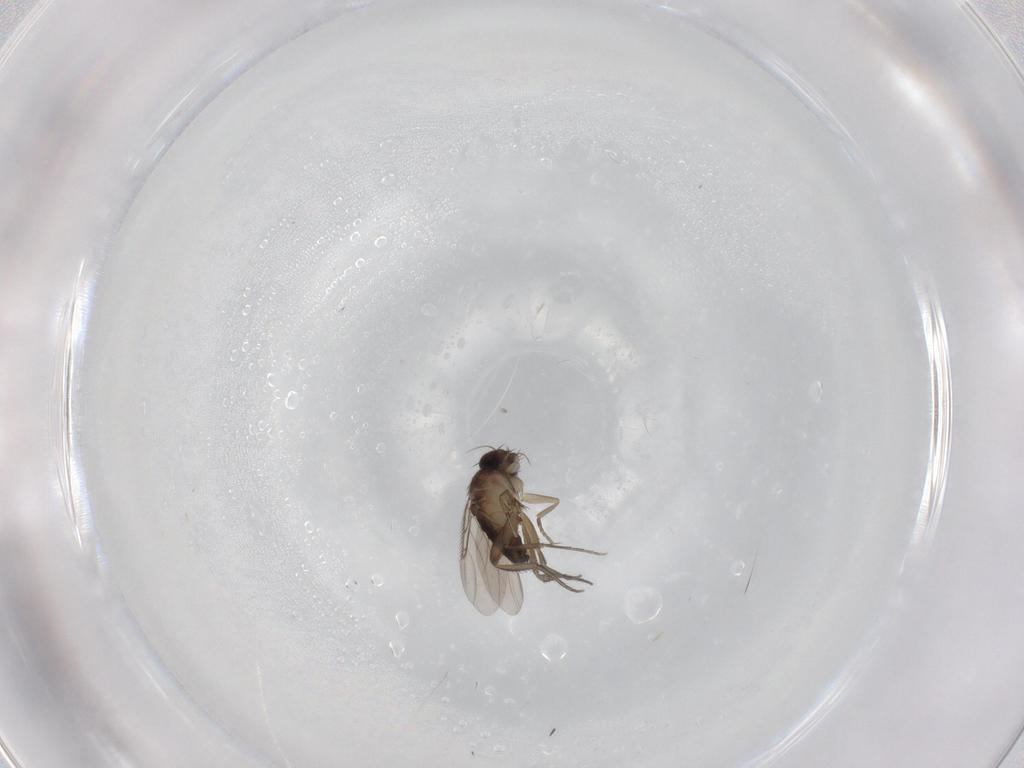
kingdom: Animalia
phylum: Arthropoda
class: Insecta
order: Diptera
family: Phoridae
